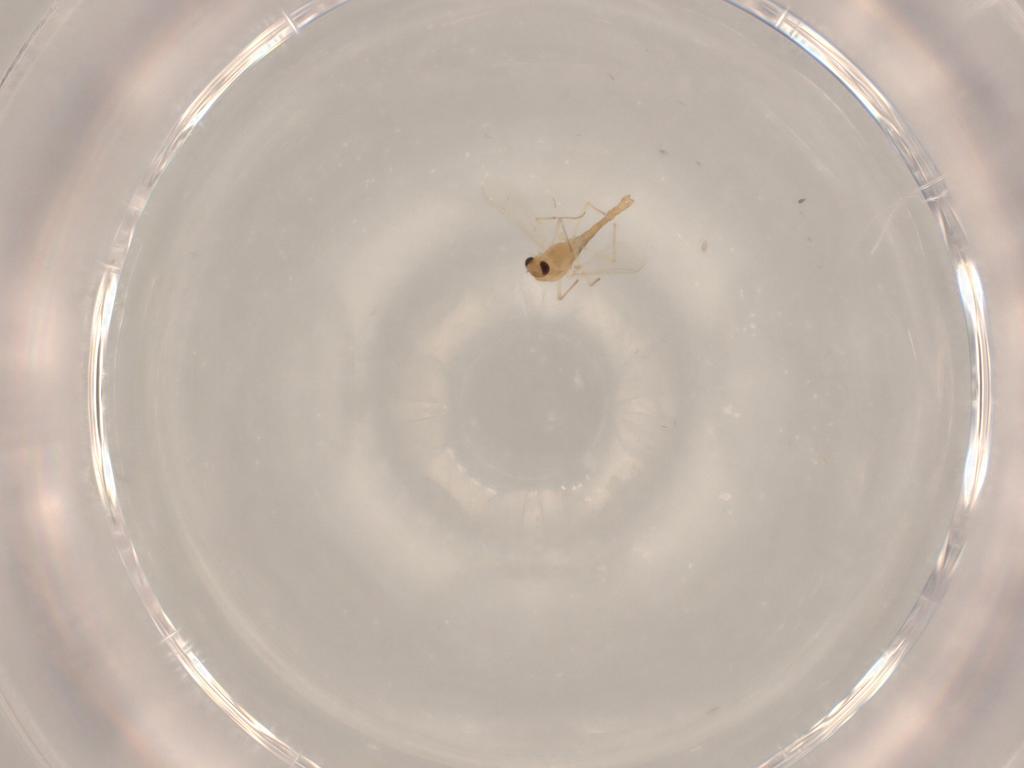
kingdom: Animalia
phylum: Arthropoda
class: Insecta
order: Diptera
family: Chironomidae
